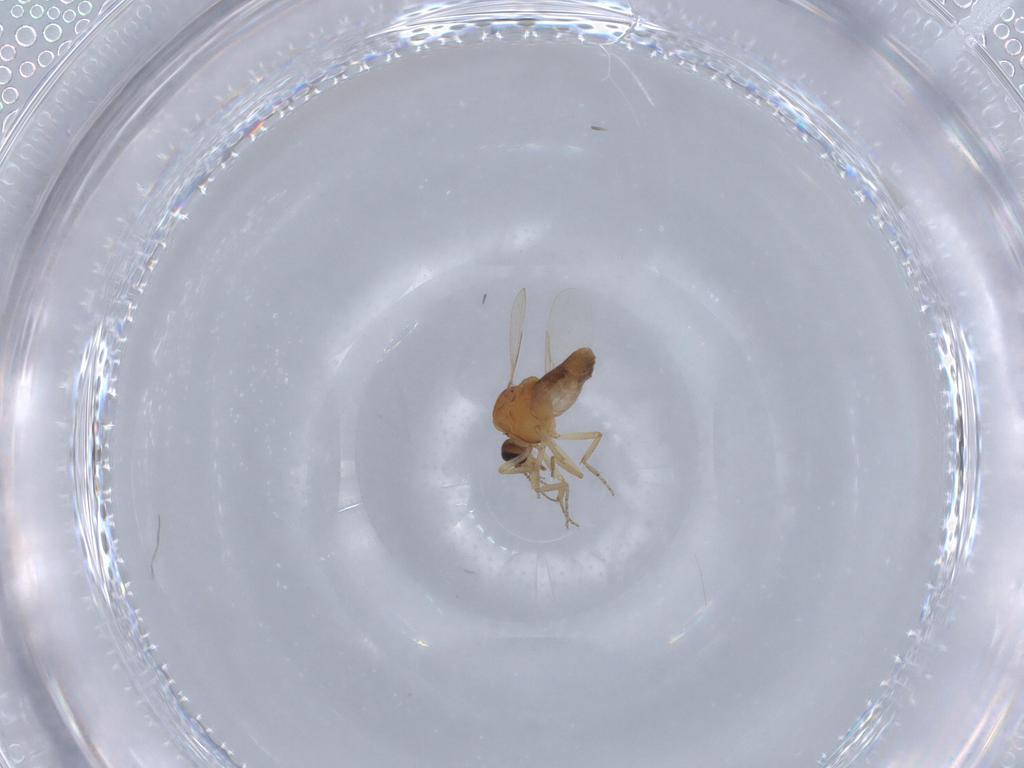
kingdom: Animalia
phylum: Arthropoda
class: Insecta
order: Diptera
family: Ceratopogonidae
